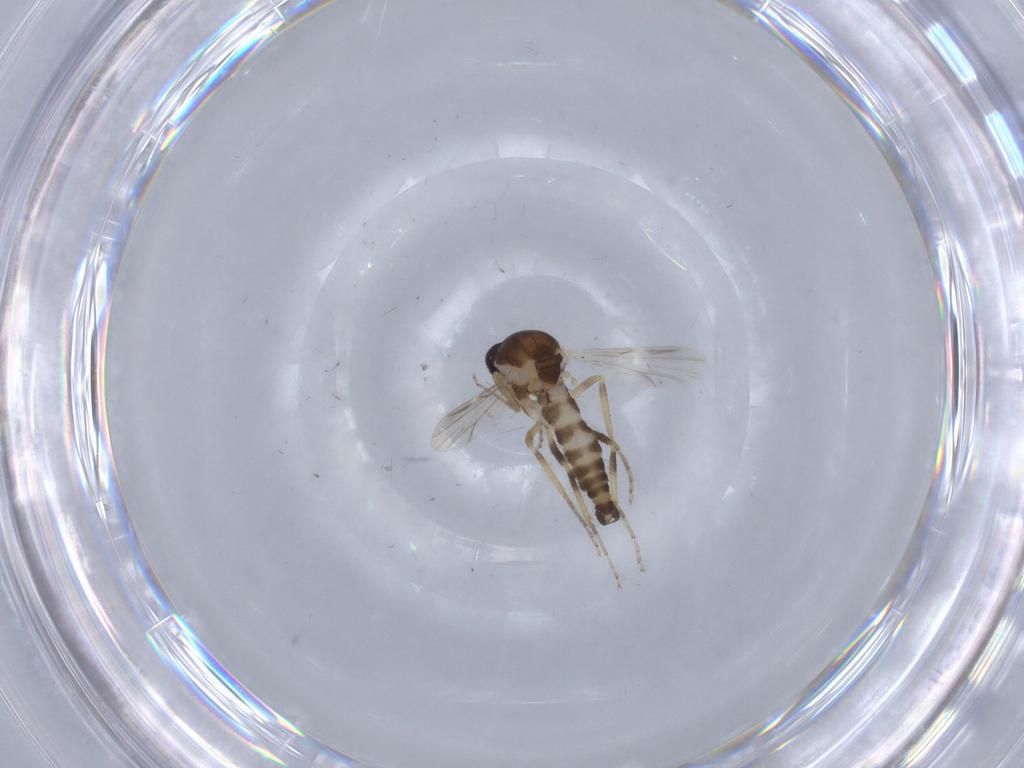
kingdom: Animalia
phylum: Arthropoda
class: Insecta
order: Diptera
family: Ceratopogonidae
